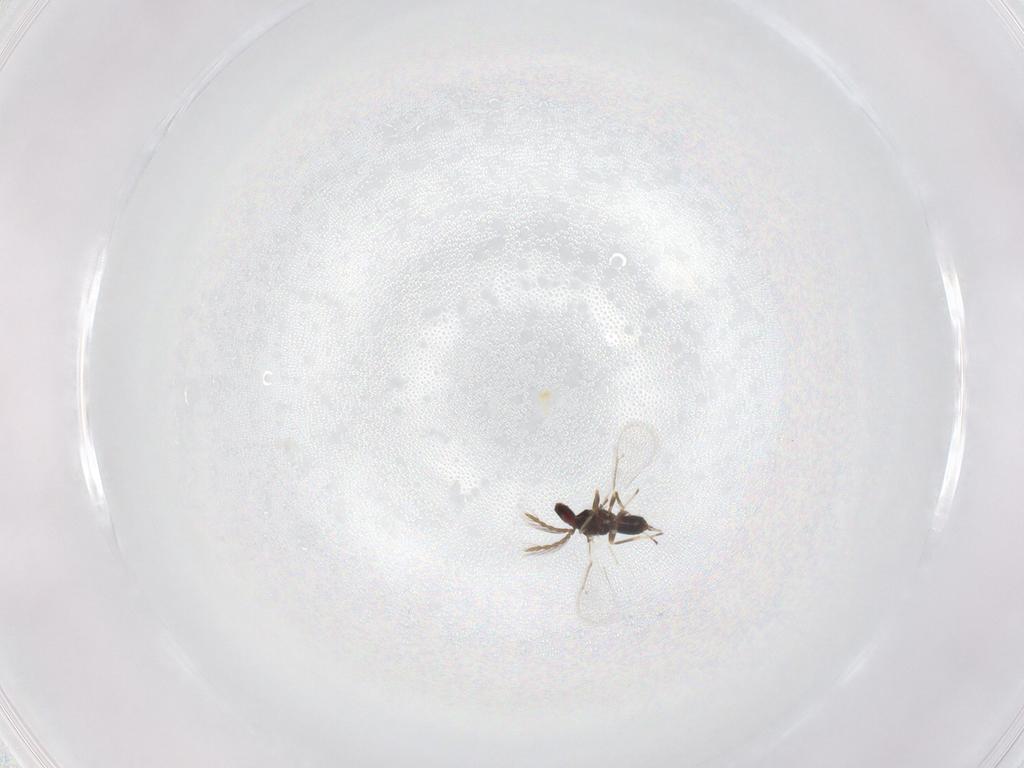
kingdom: Animalia
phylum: Arthropoda
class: Insecta
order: Hymenoptera
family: Eulophidae
